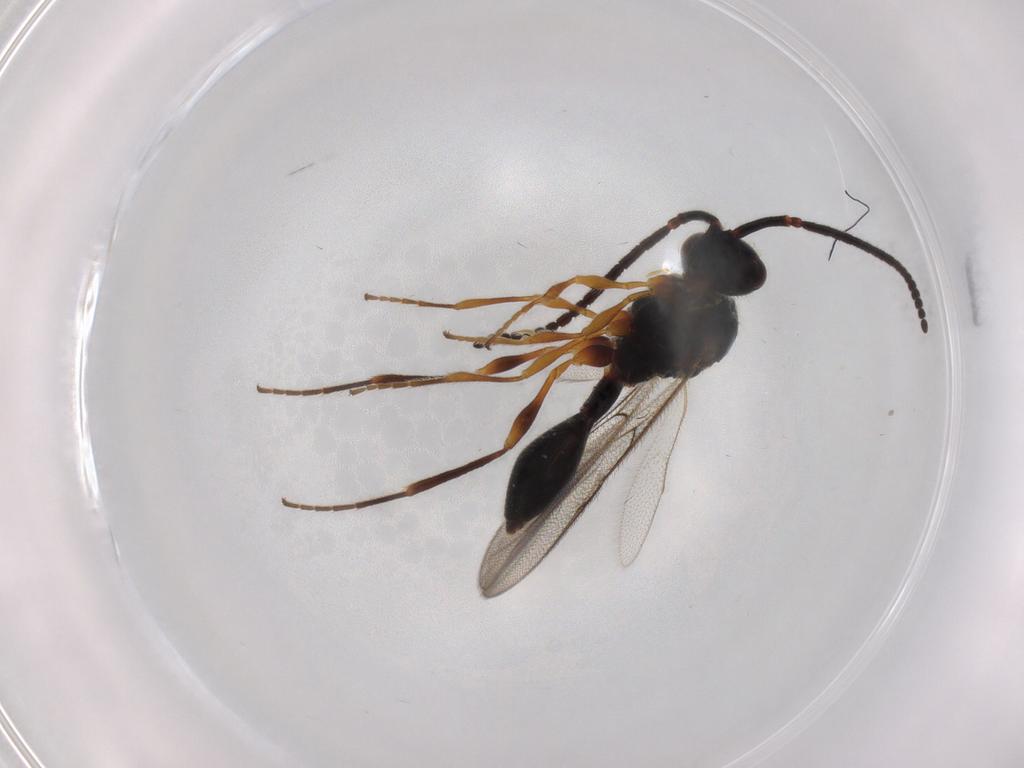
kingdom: Animalia
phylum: Arthropoda
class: Insecta
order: Hymenoptera
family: Diapriidae
